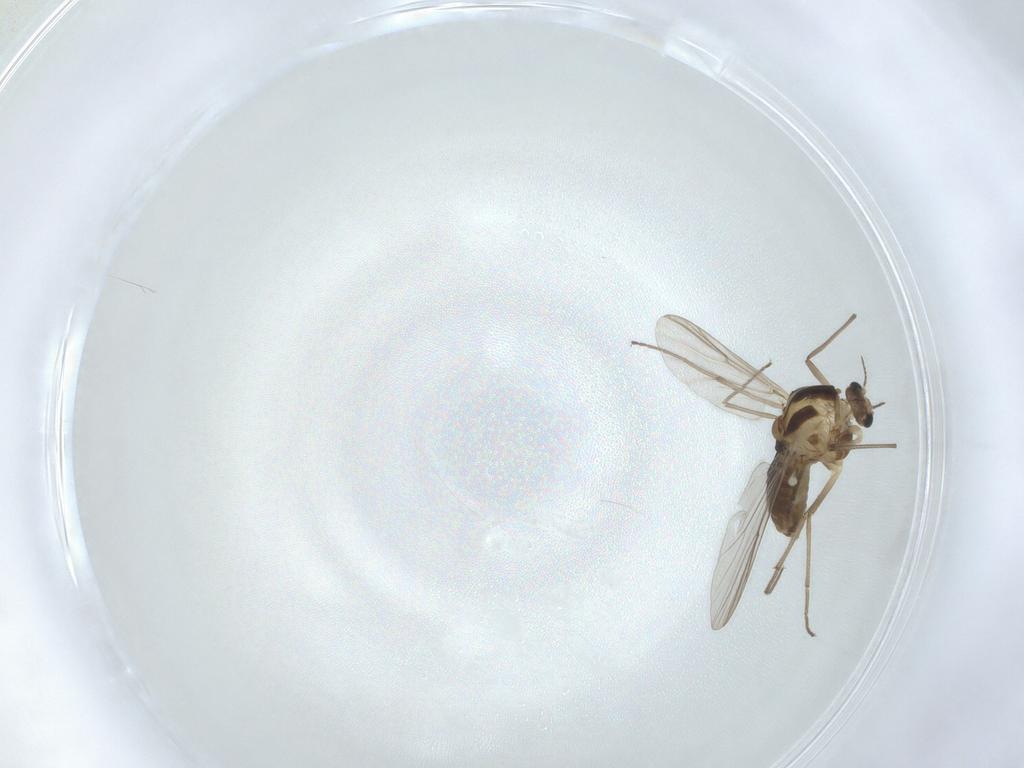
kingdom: Animalia
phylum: Arthropoda
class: Insecta
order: Diptera
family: Chironomidae
